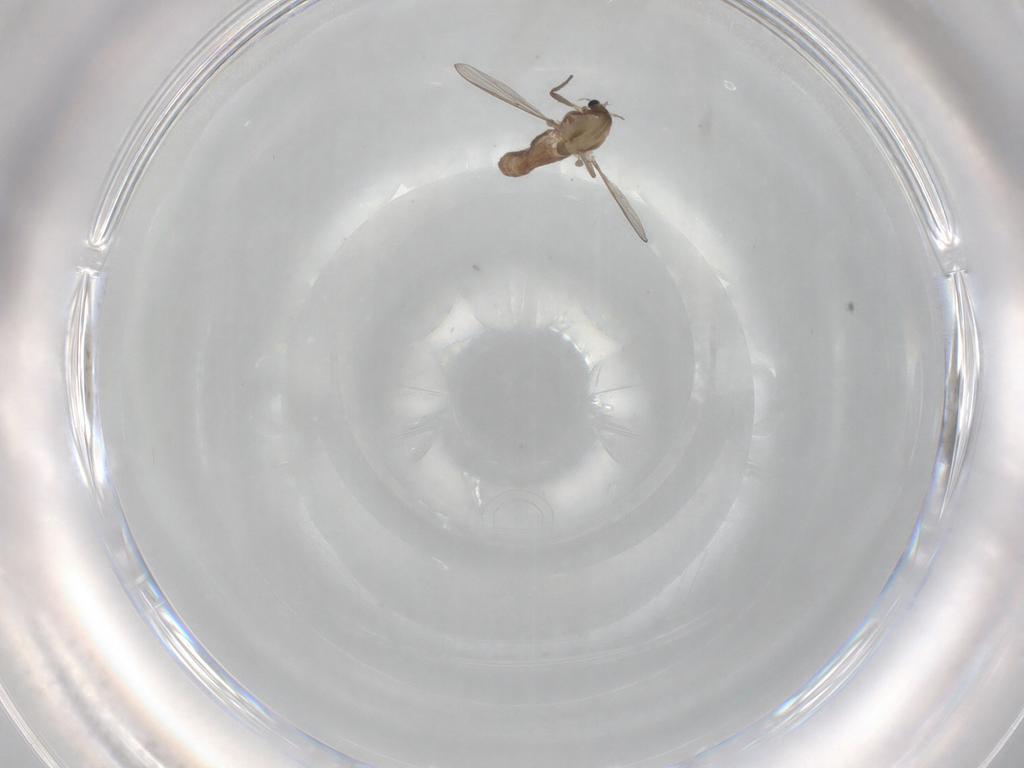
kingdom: Animalia
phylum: Arthropoda
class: Insecta
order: Diptera
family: Chironomidae
